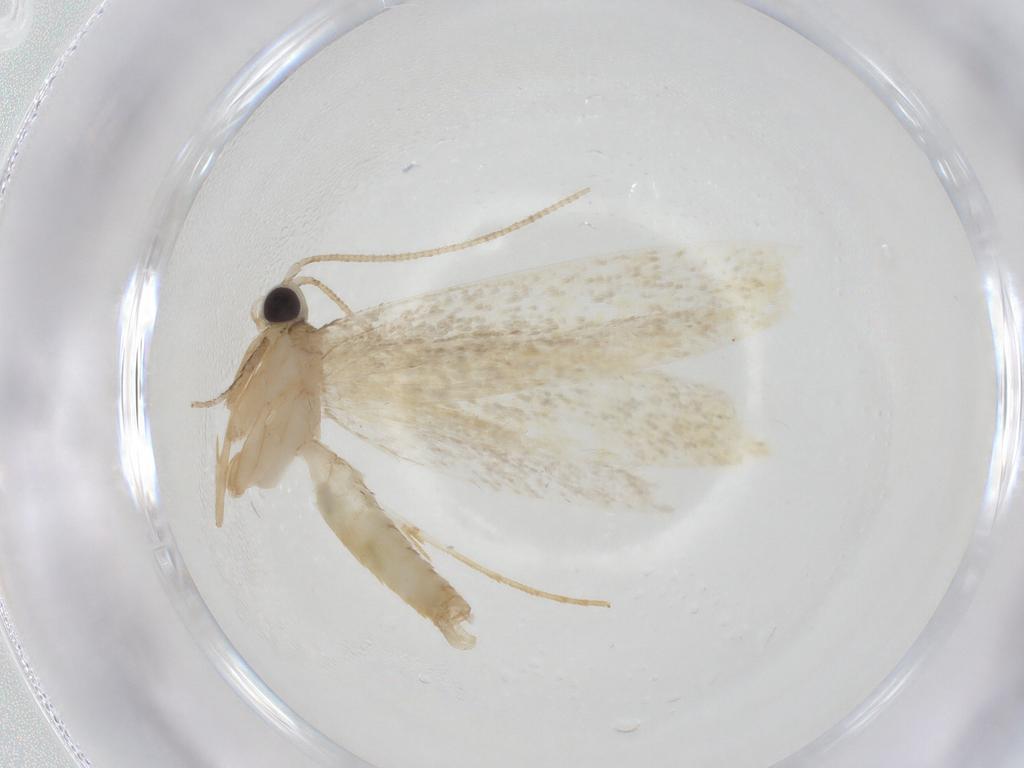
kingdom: Animalia
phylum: Arthropoda
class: Insecta
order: Lepidoptera
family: Tineidae
